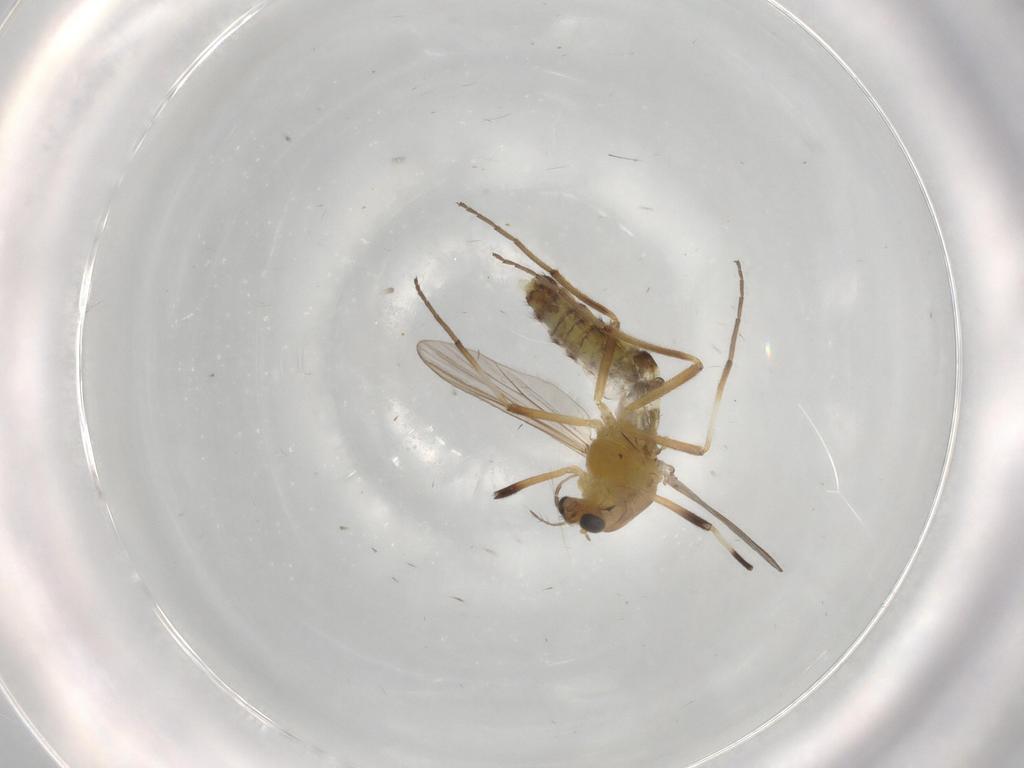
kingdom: Animalia
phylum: Arthropoda
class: Insecta
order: Diptera
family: Chironomidae
